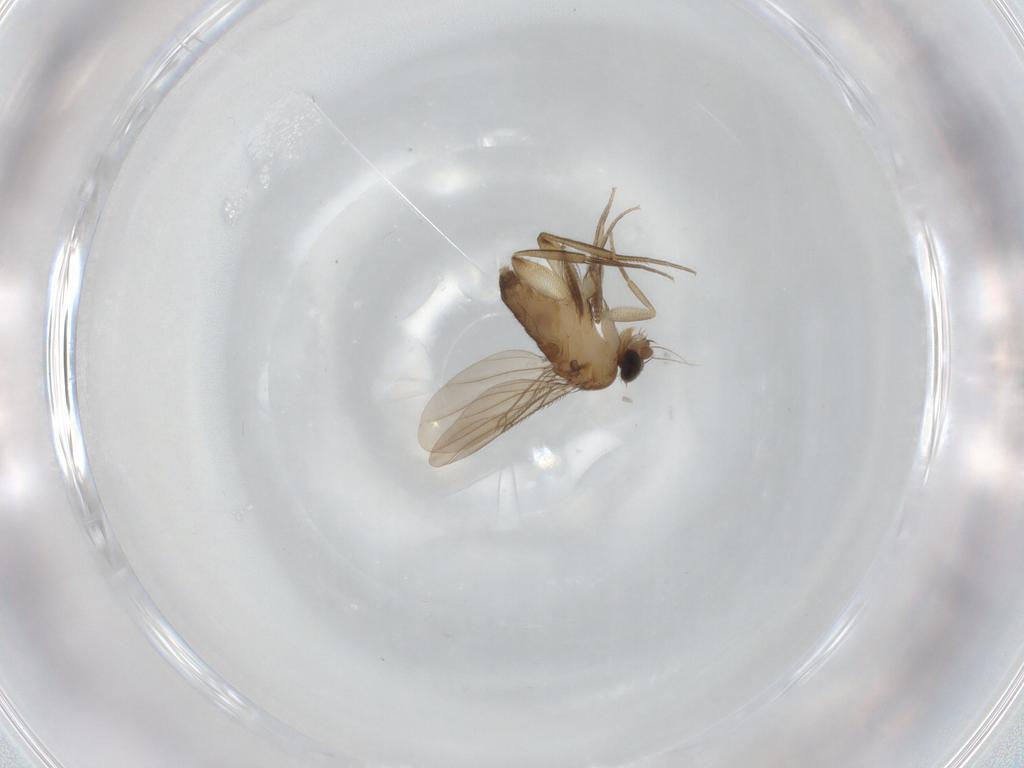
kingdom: Animalia
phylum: Arthropoda
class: Insecta
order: Diptera
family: Phoridae
